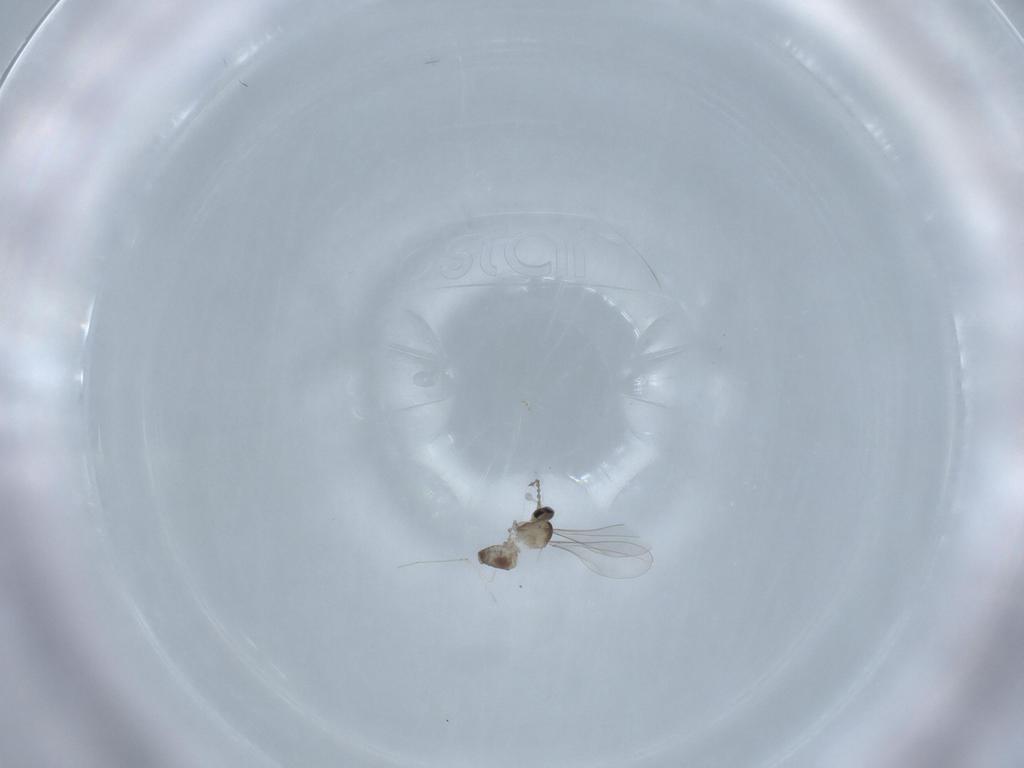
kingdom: Animalia
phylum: Arthropoda
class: Insecta
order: Diptera
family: Cecidomyiidae
